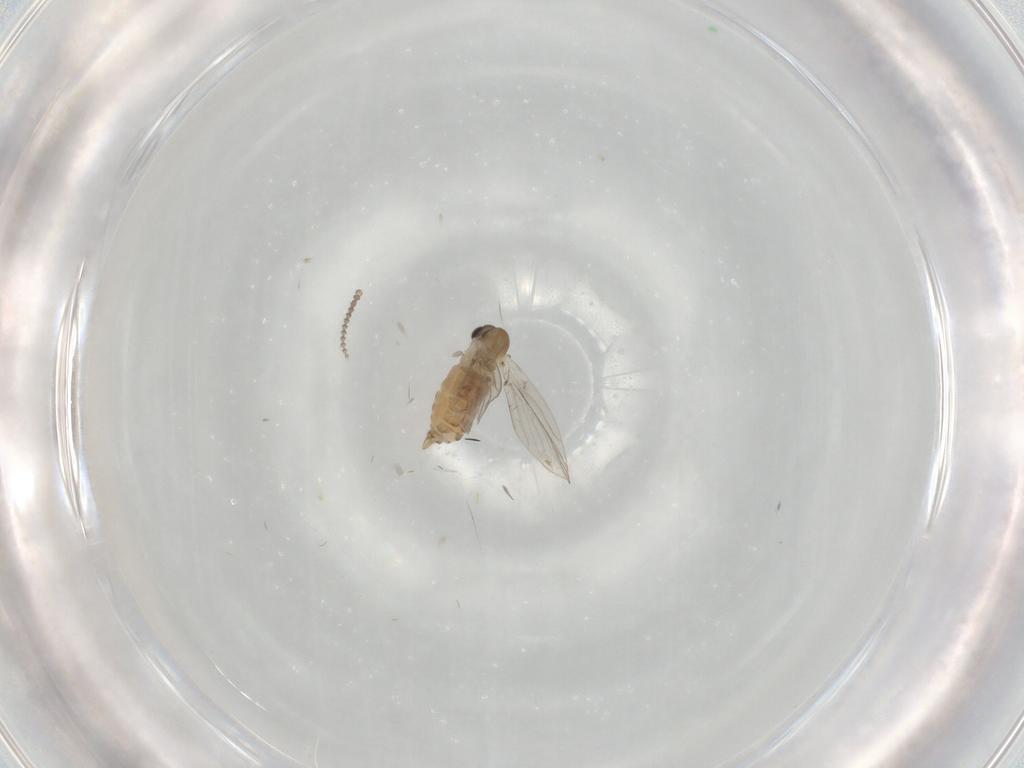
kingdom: Animalia
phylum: Arthropoda
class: Insecta
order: Diptera
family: Psychodidae
